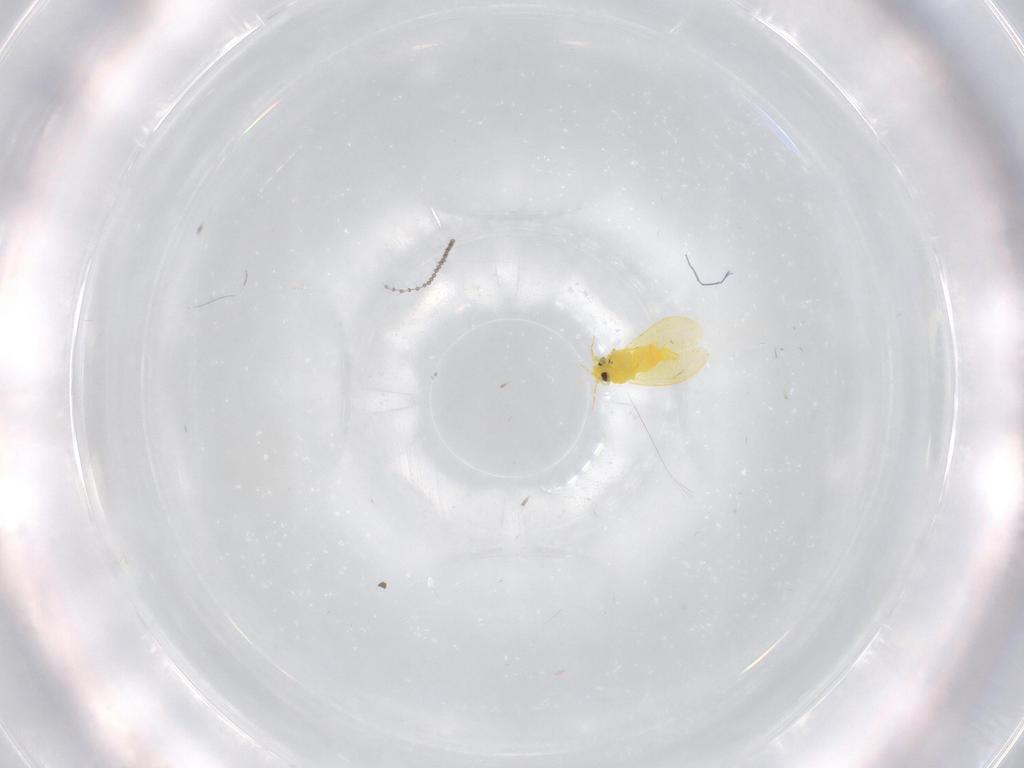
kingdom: Animalia
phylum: Arthropoda
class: Insecta
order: Hemiptera
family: Aleyrodidae
